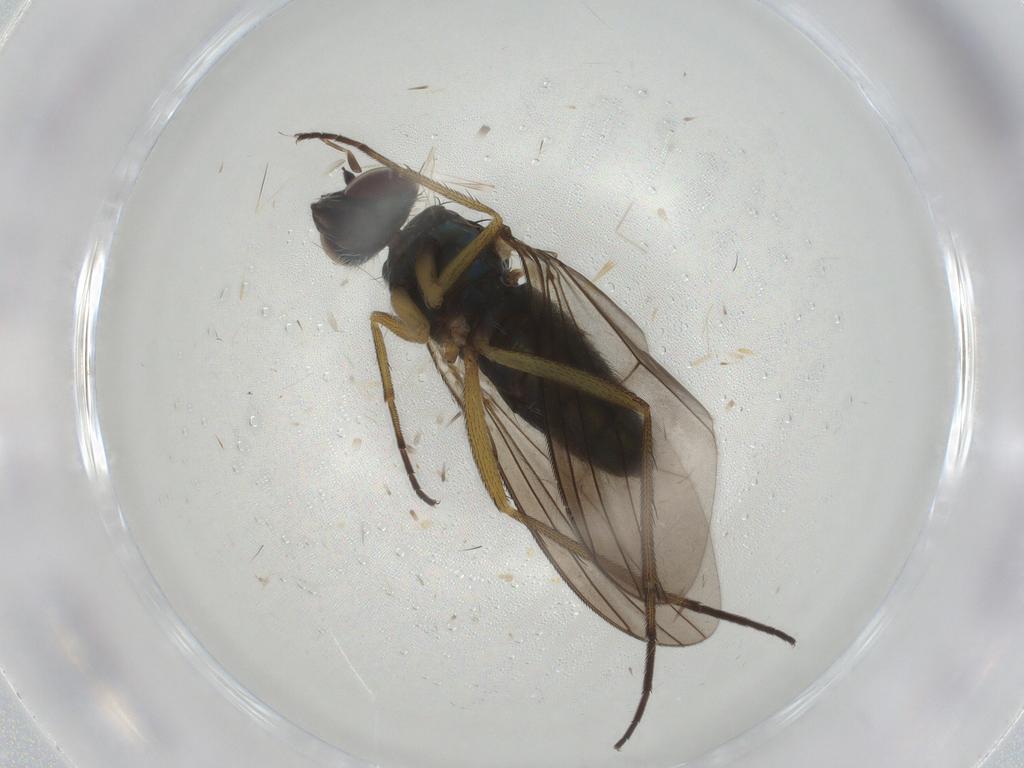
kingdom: Animalia
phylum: Arthropoda
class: Insecta
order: Diptera
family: Dolichopodidae
